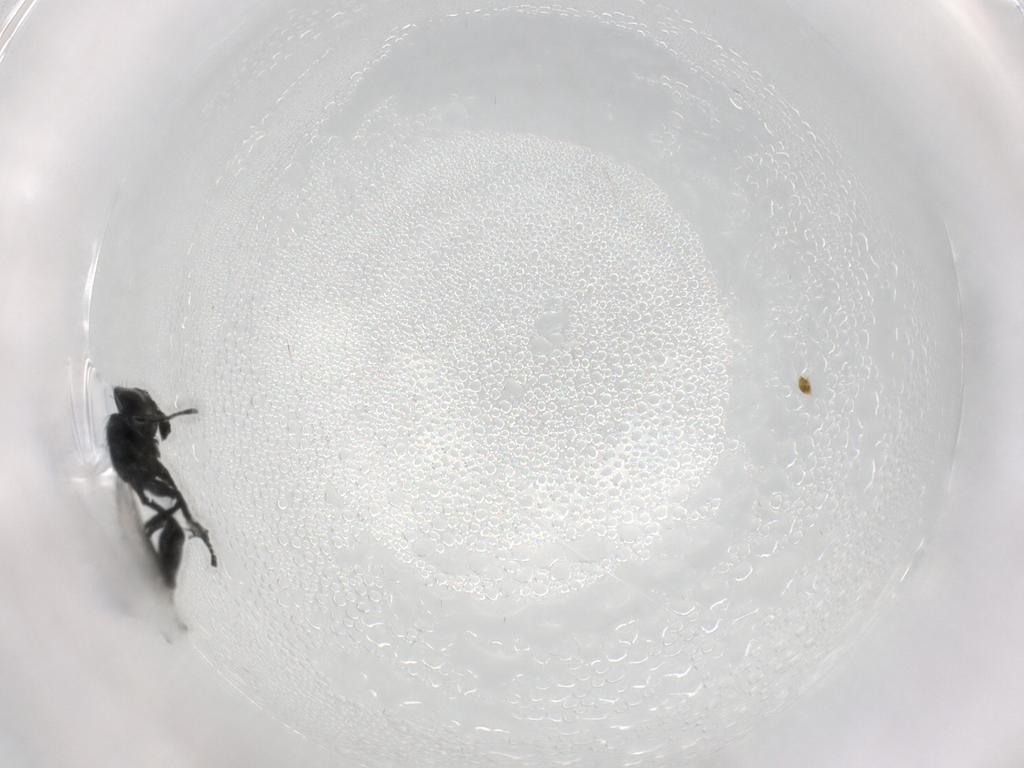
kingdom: Animalia
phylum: Arthropoda
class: Insecta
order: Hymenoptera
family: Eulophidae
